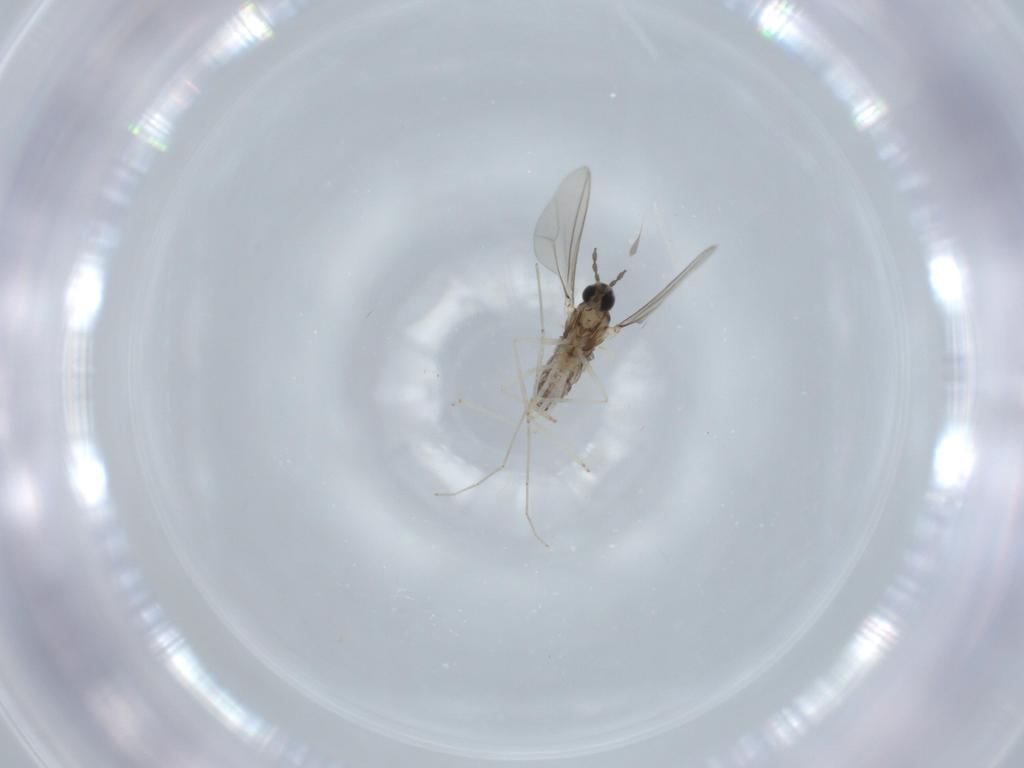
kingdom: Animalia
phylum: Arthropoda
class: Insecta
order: Diptera
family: Cecidomyiidae
